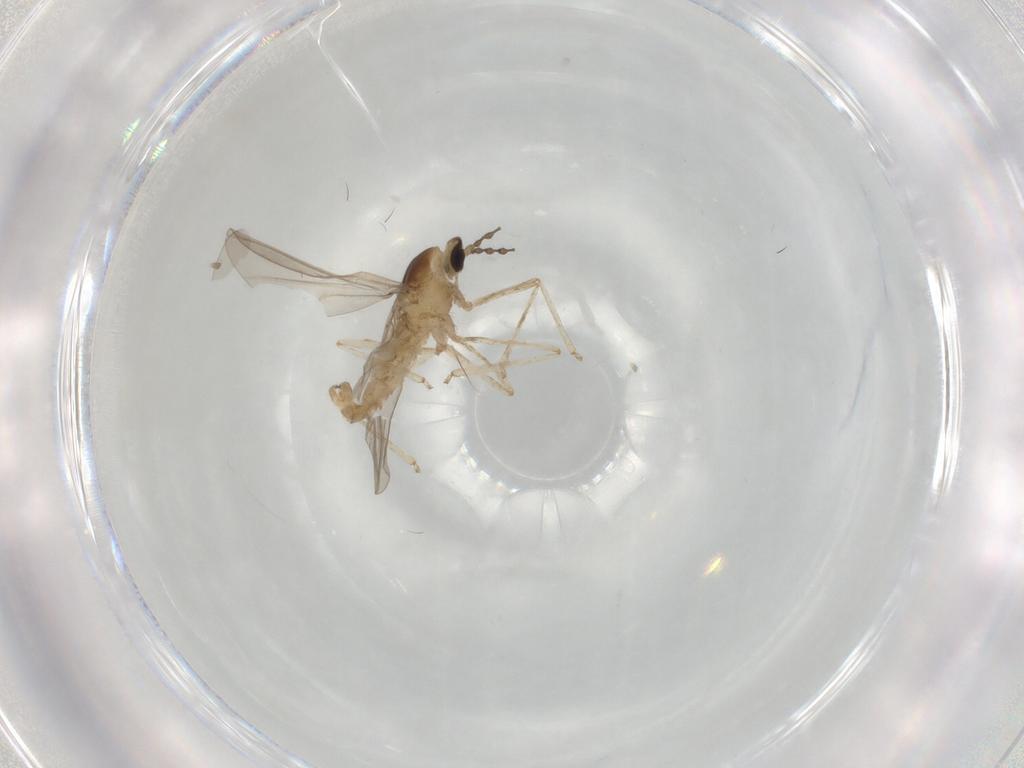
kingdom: Animalia
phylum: Arthropoda
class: Insecta
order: Diptera
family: Cecidomyiidae
